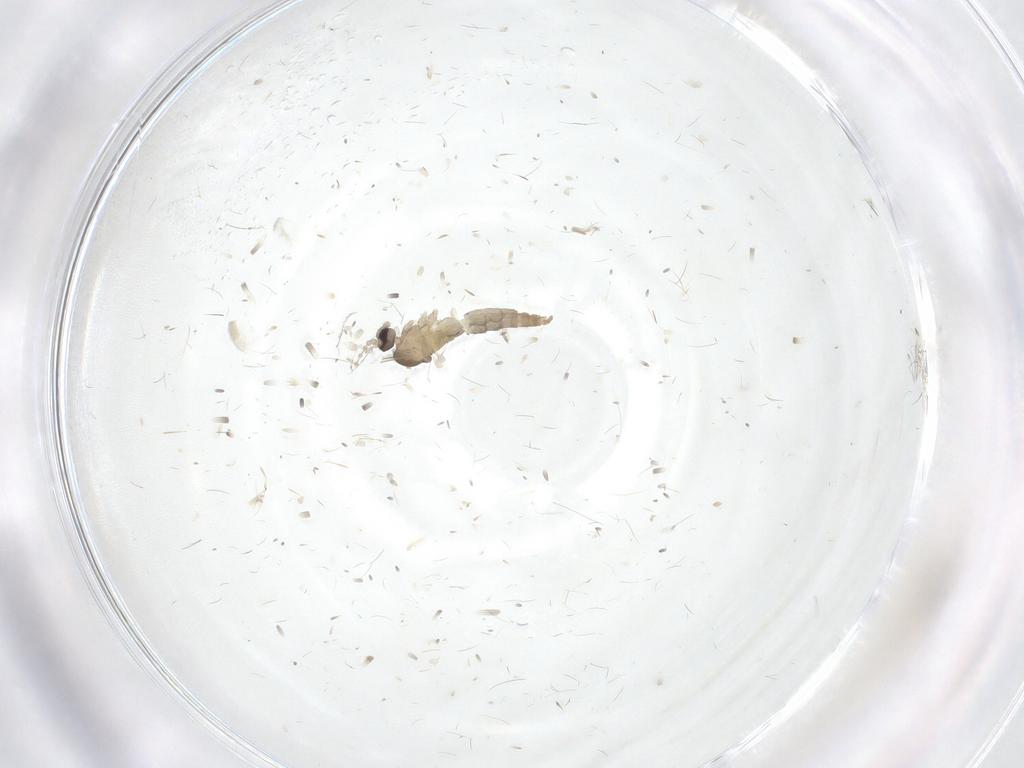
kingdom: Animalia
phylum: Arthropoda
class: Insecta
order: Diptera
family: Cecidomyiidae
